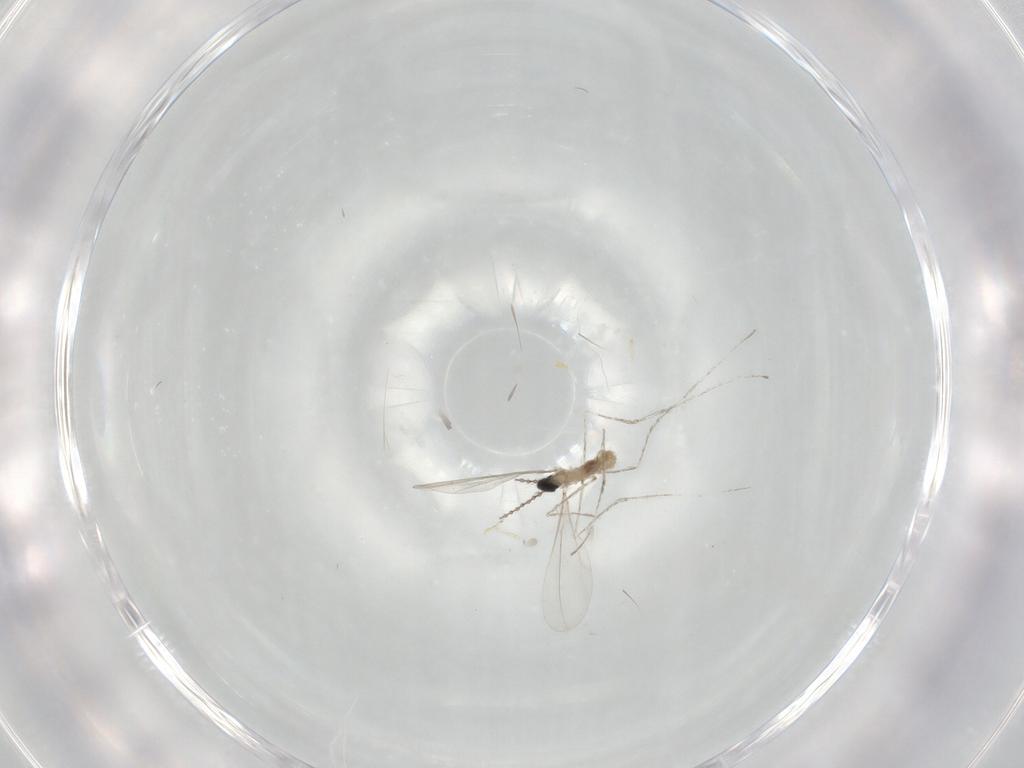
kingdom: Animalia
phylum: Arthropoda
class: Insecta
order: Diptera
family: Cecidomyiidae
